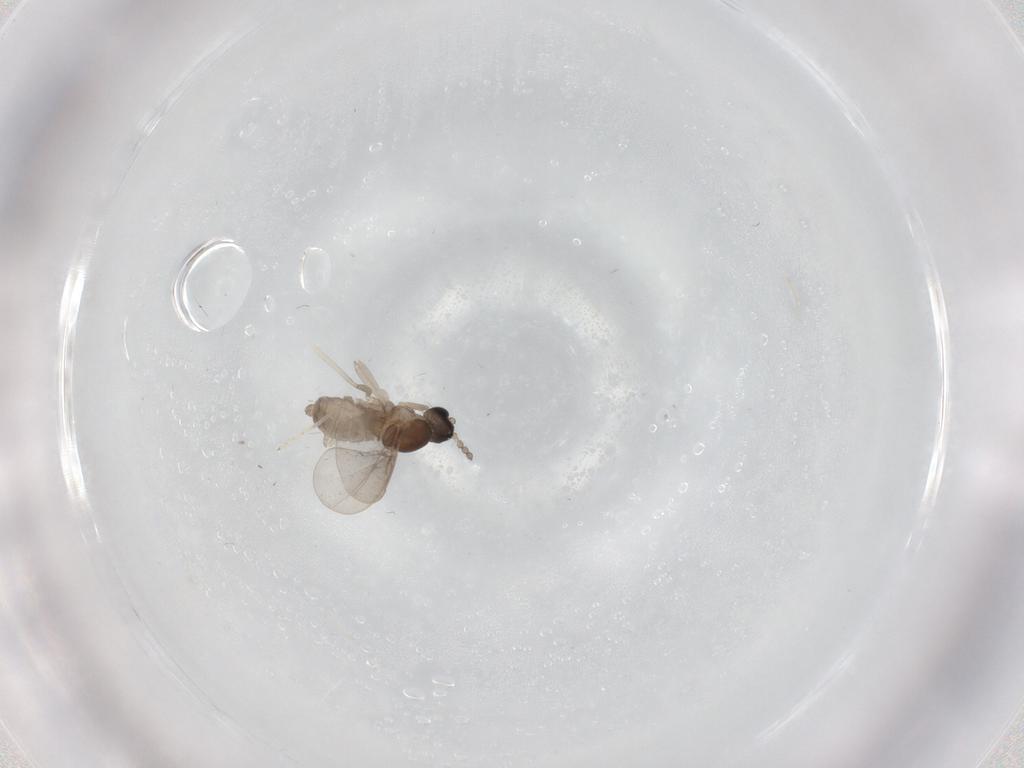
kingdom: Animalia
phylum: Arthropoda
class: Insecta
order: Diptera
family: Cecidomyiidae
